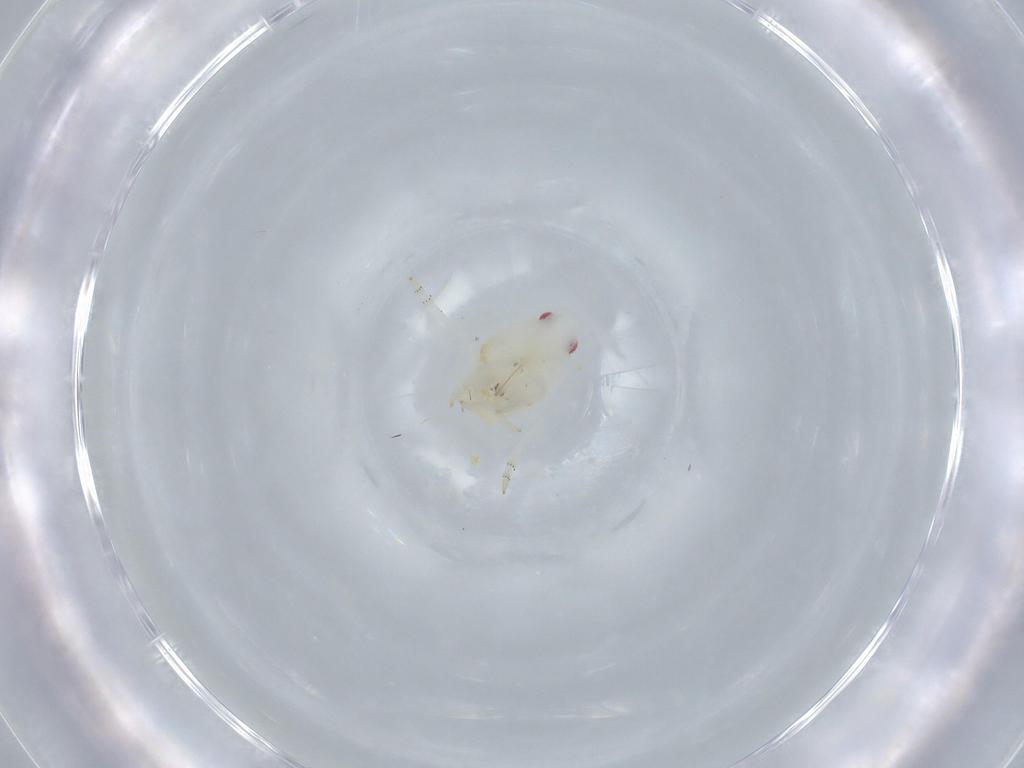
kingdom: Animalia
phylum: Arthropoda
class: Insecta
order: Hemiptera
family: Flatidae
